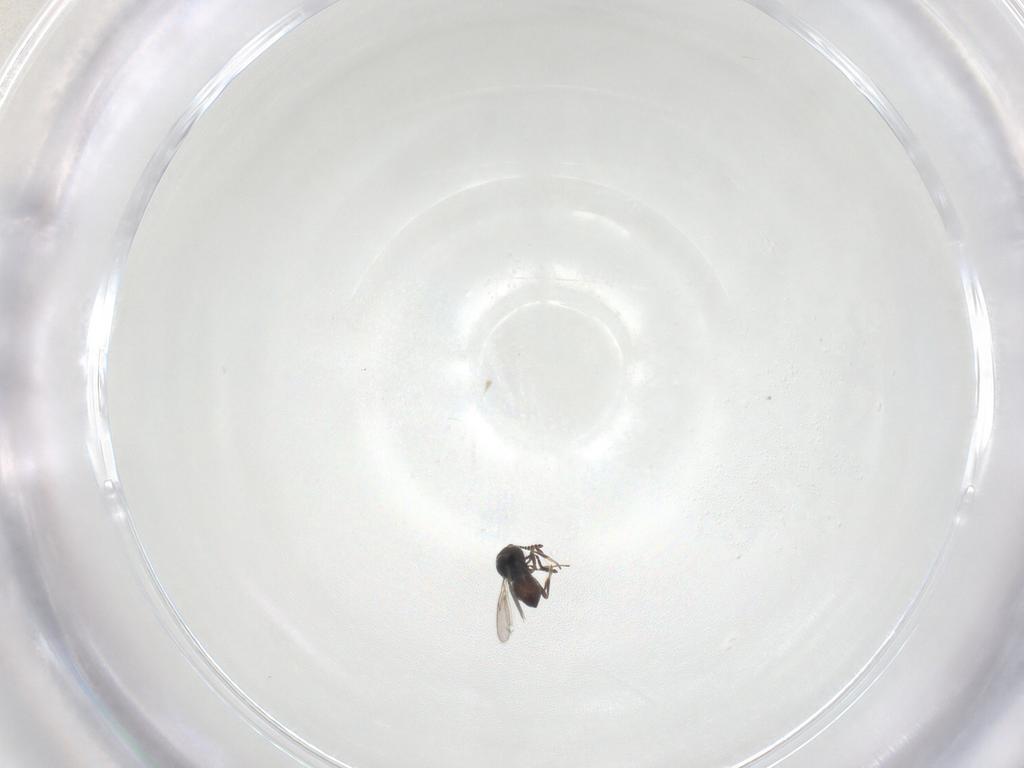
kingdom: Animalia
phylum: Arthropoda
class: Insecta
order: Hymenoptera
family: Scelionidae
